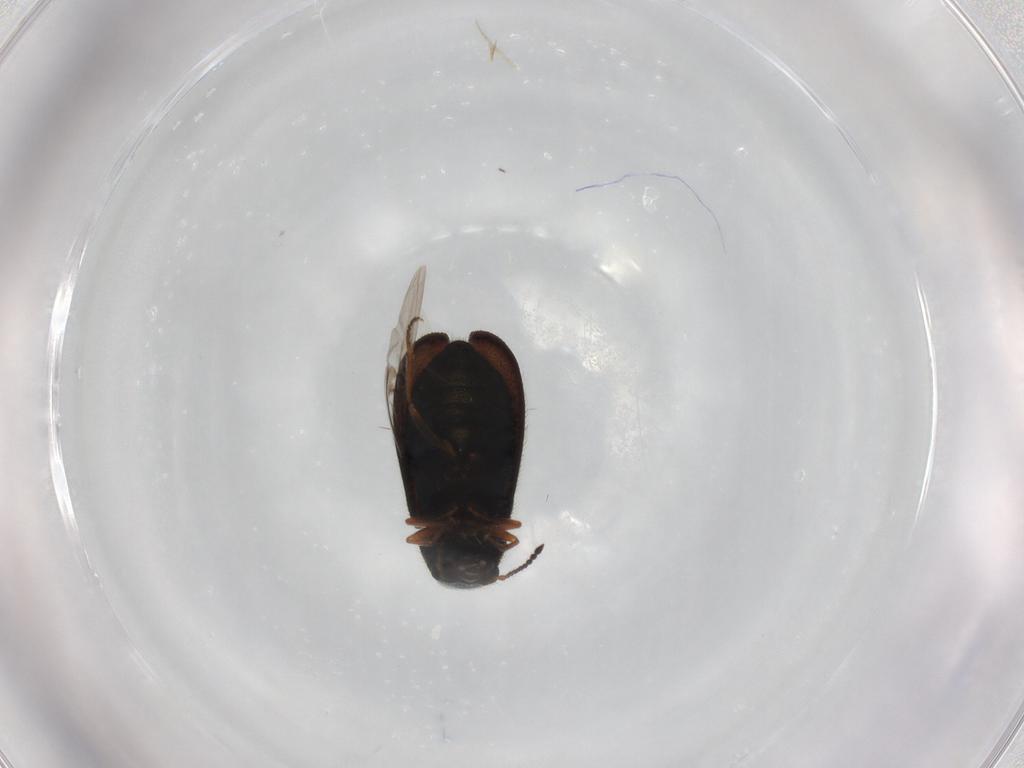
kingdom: Animalia
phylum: Arthropoda
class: Insecta
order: Coleoptera
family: Melyridae
